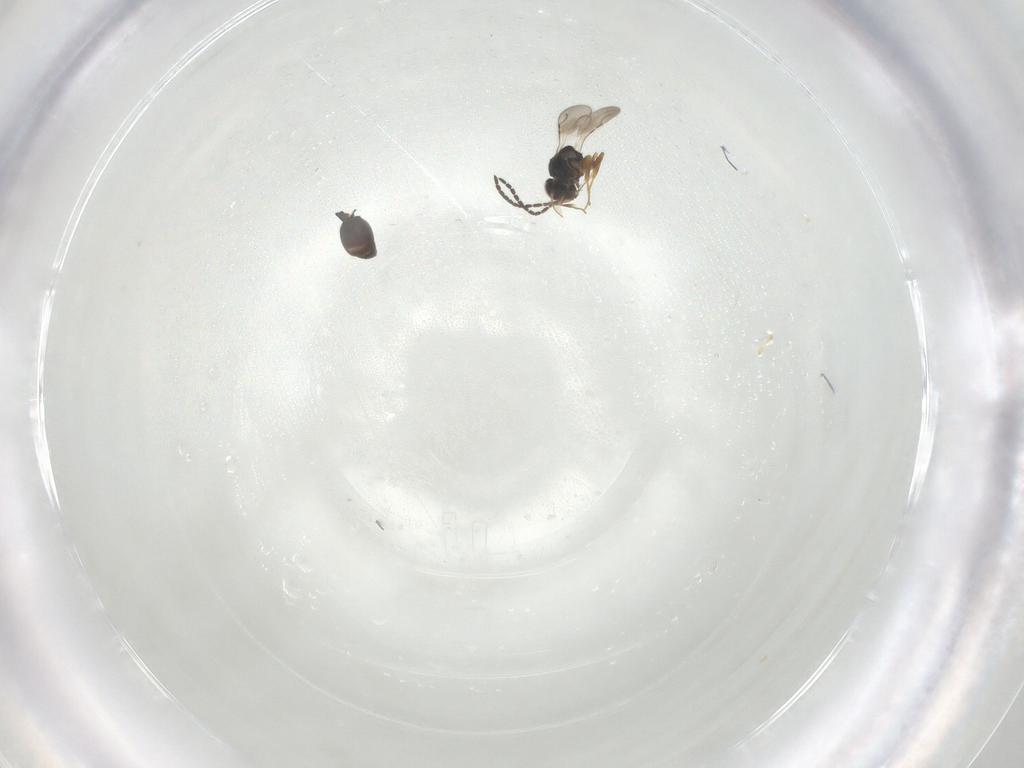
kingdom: Animalia
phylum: Arthropoda
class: Insecta
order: Hymenoptera
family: Ceraphronidae
